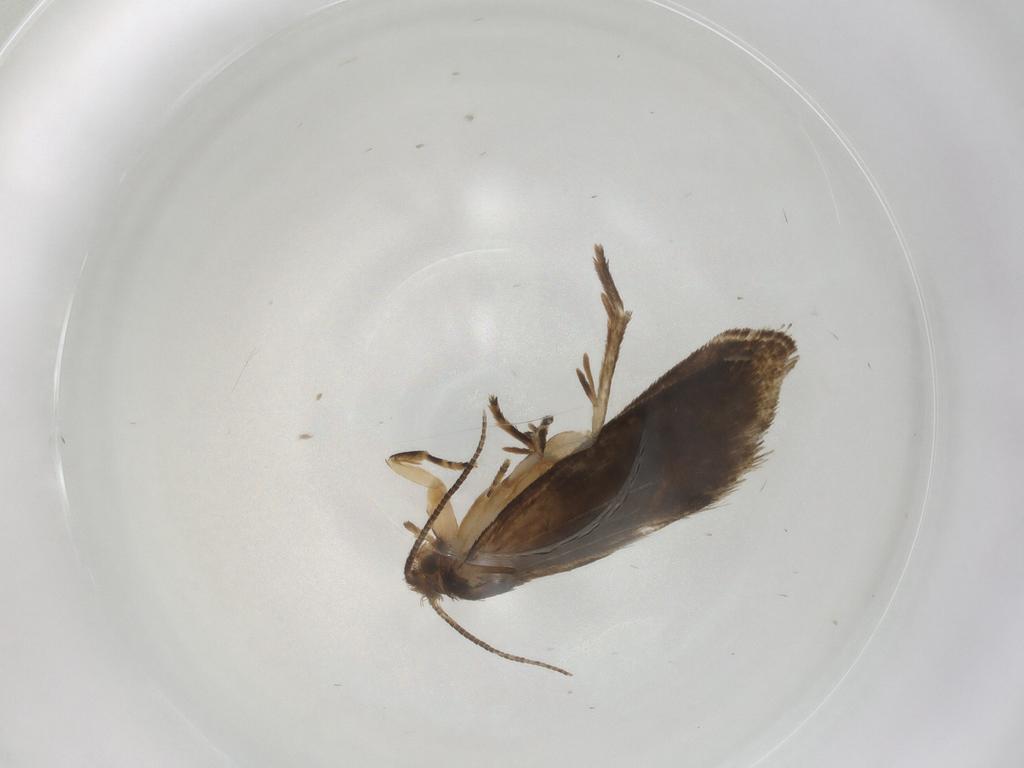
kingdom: Animalia
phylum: Arthropoda
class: Insecta
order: Lepidoptera
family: Crambidae
